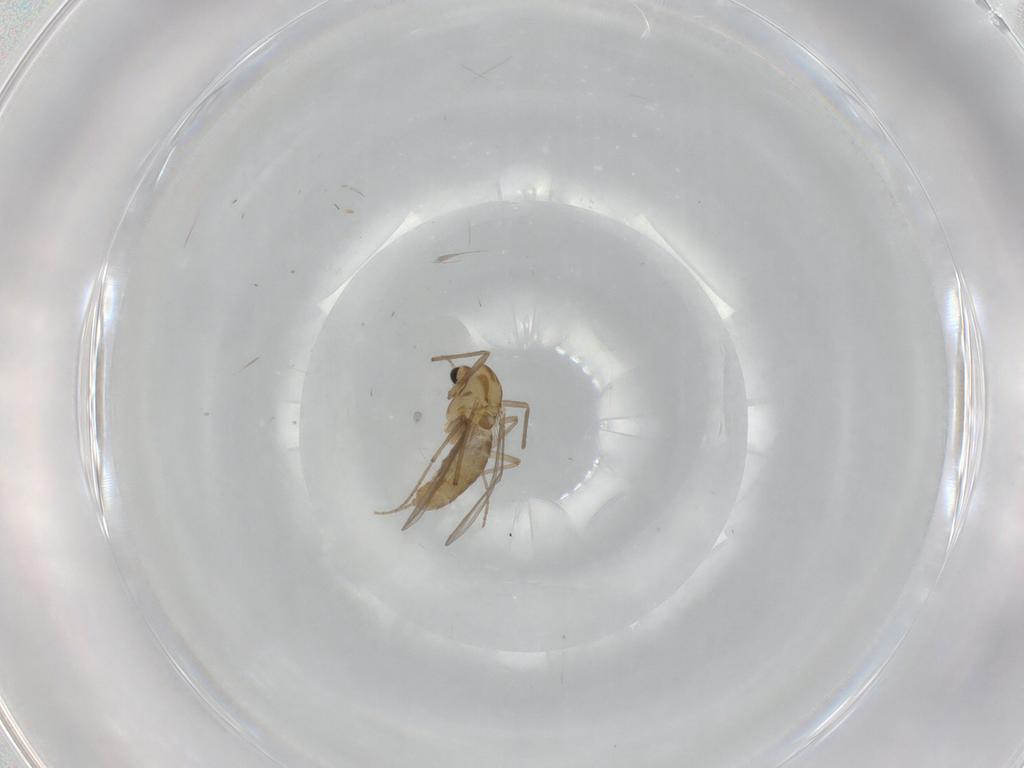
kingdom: Animalia
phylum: Arthropoda
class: Insecta
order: Diptera
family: Chironomidae
